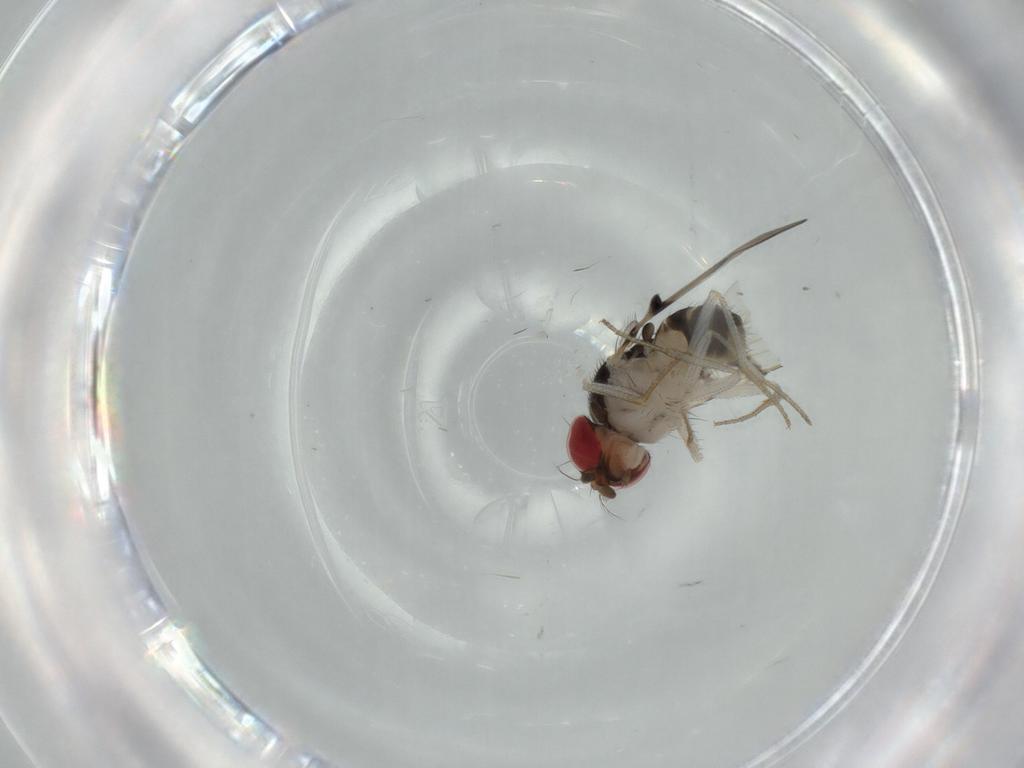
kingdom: Animalia
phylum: Arthropoda
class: Insecta
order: Diptera
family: Drosophilidae
